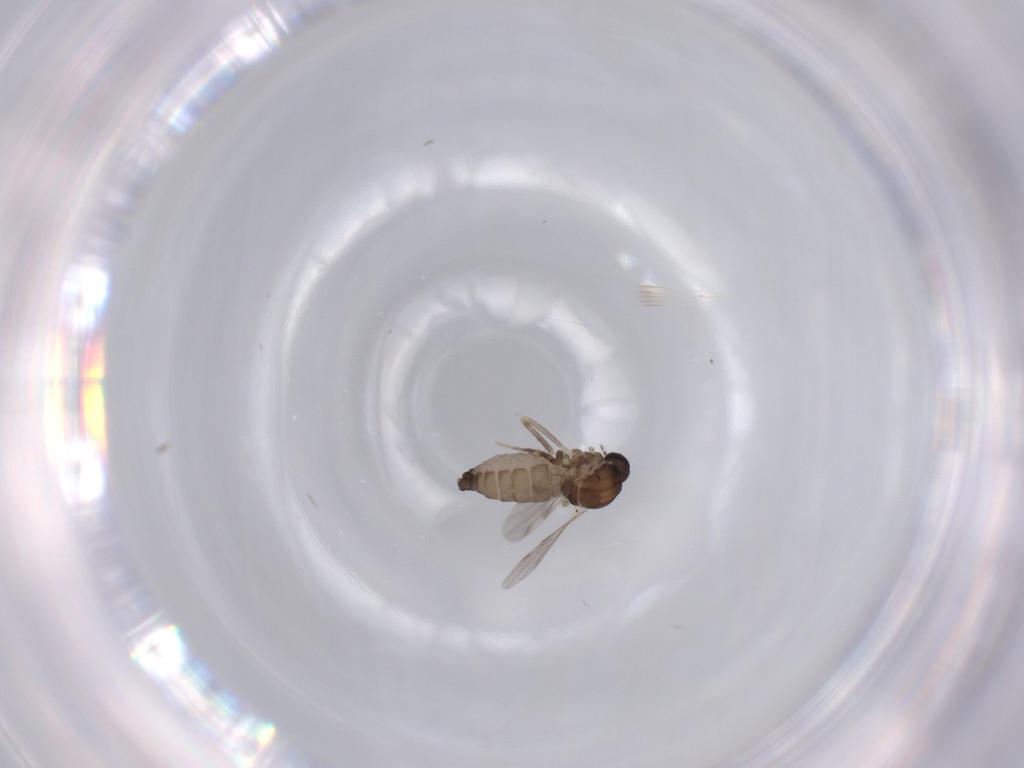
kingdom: Animalia
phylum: Arthropoda
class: Insecta
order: Diptera
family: Ceratopogonidae
